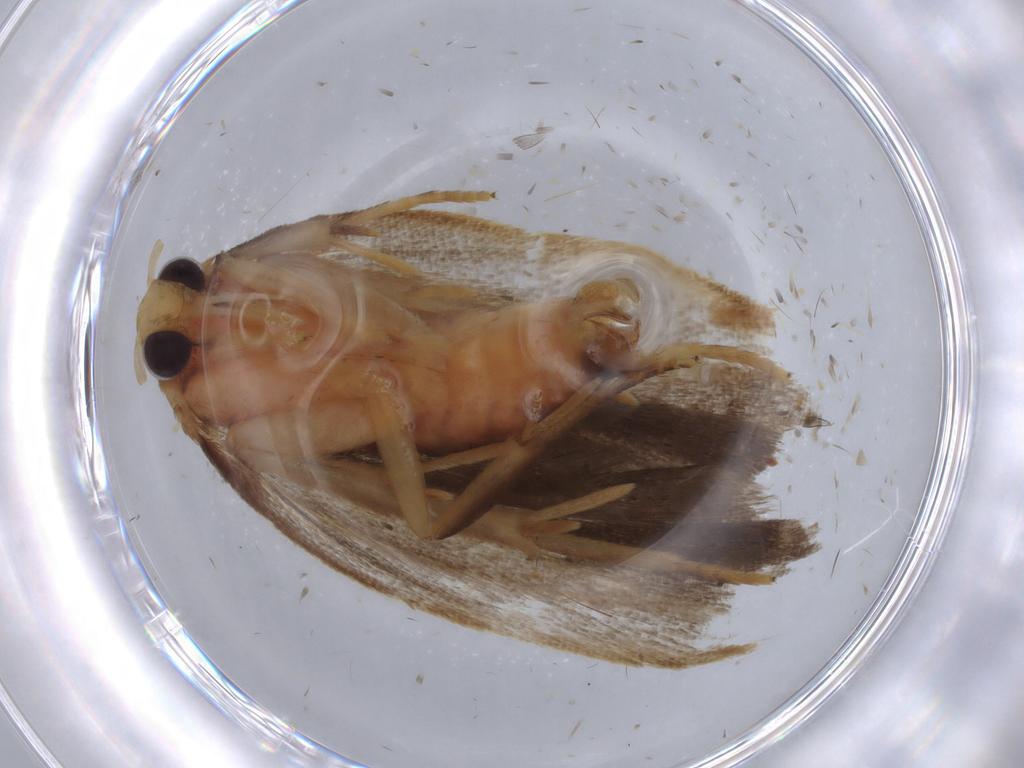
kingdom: Animalia
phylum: Arthropoda
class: Insecta
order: Lepidoptera
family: Depressariidae
